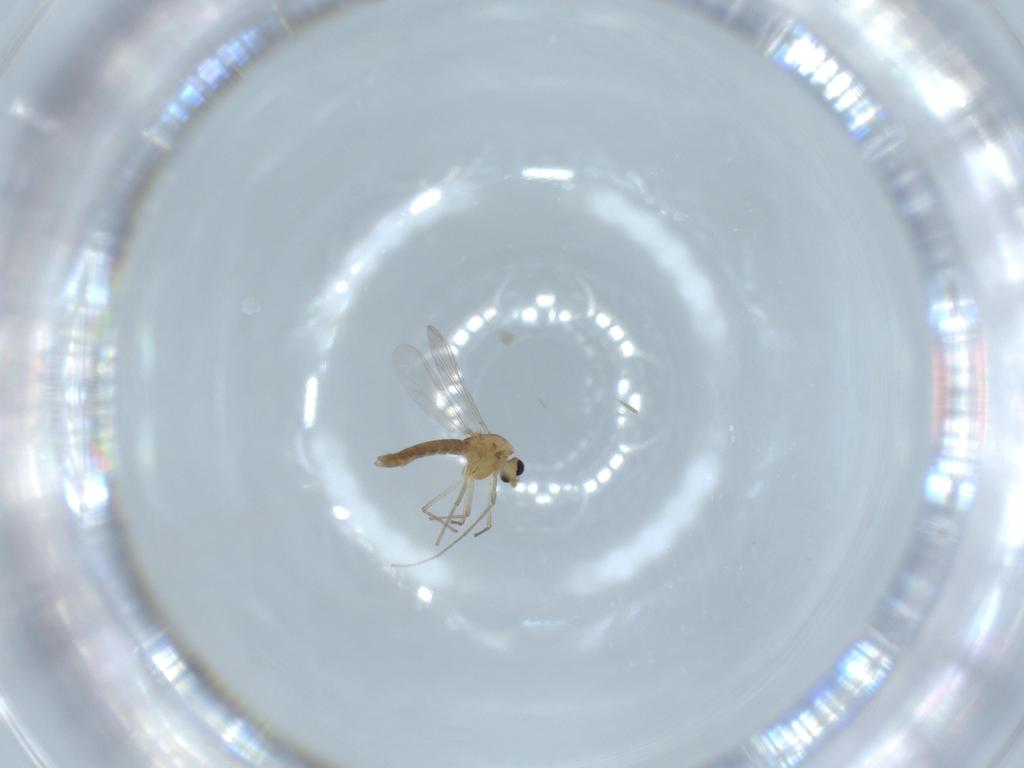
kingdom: Animalia
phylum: Arthropoda
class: Insecta
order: Diptera
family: Chironomidae
